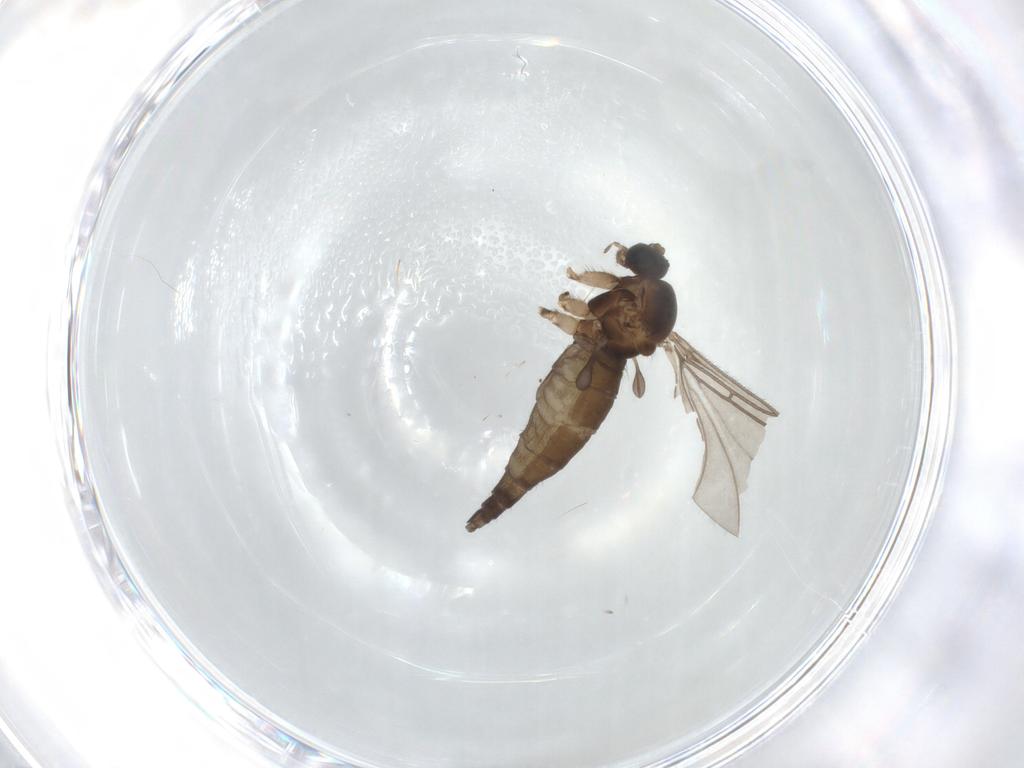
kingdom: Animalia
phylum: Arthropoda
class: Insecta
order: Diptera
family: Sciaridae
